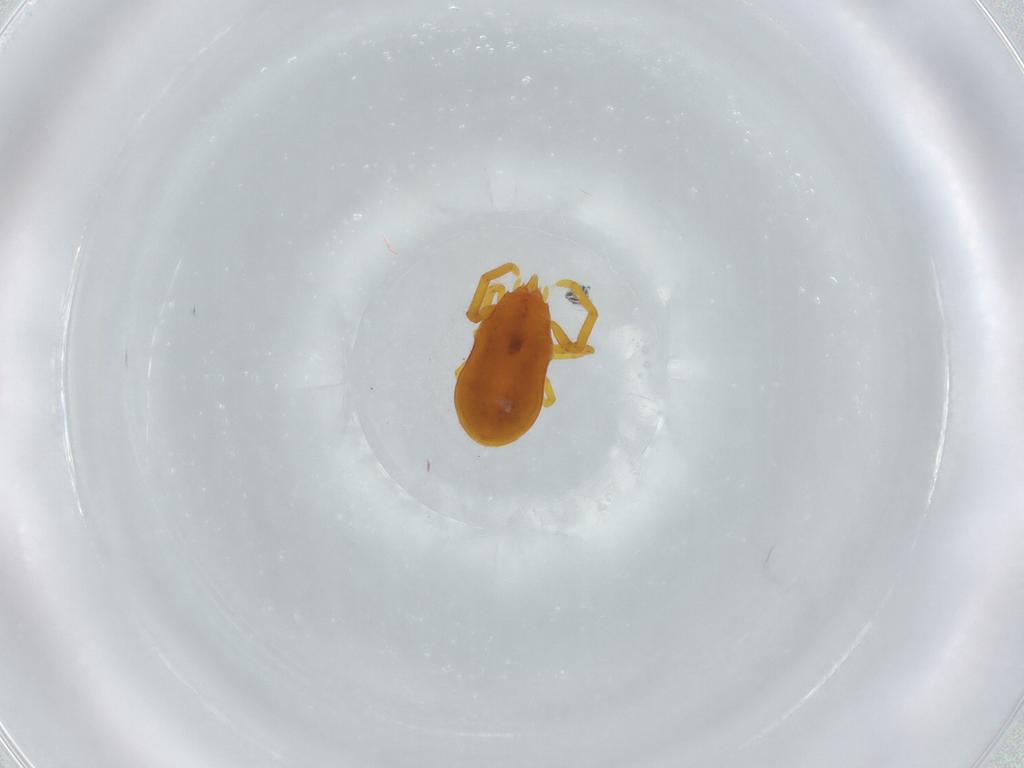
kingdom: Animalia
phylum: Arthropoda
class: Arachnida
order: Trombidiformes
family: Labidostommidae
